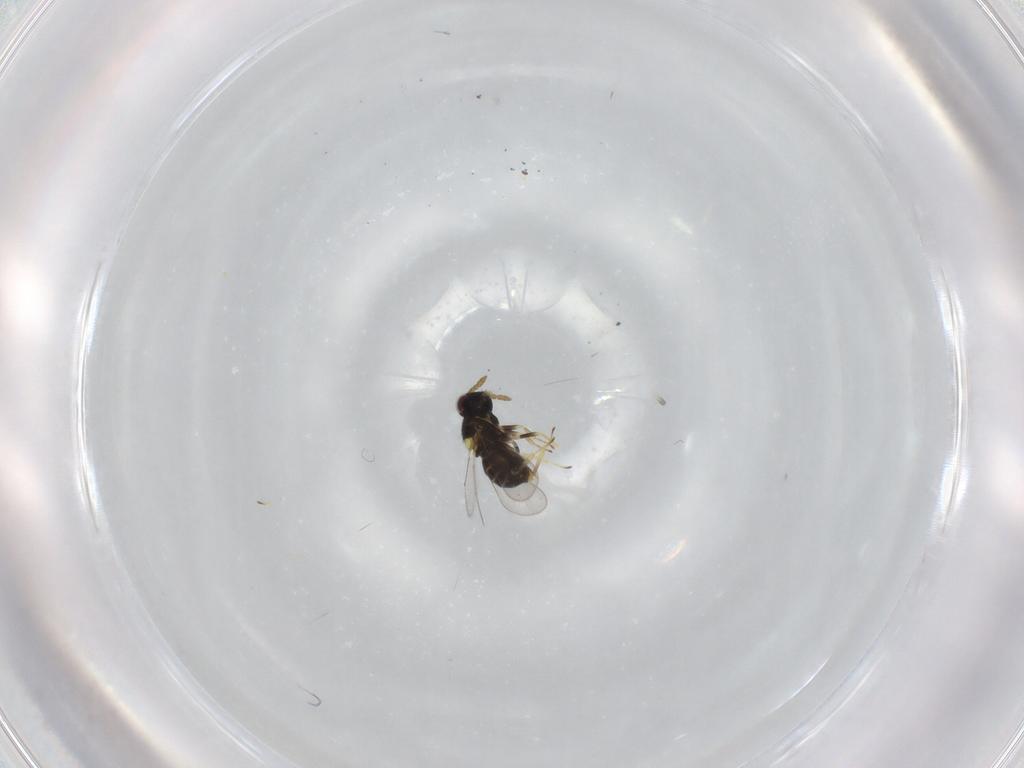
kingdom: Animalia
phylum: Arthropoda
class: Insecta
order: Hymenoptera
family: Aphelinidae
